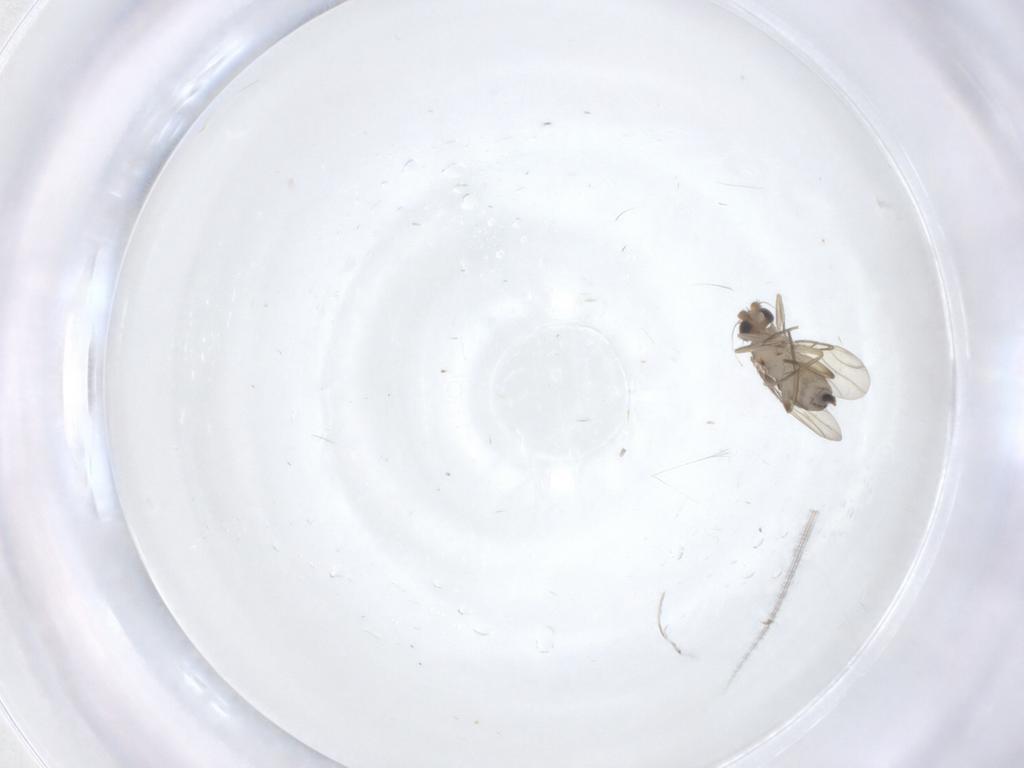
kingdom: Animalia
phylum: Arthropoda
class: Insecta
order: Diptera
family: Phoridae
